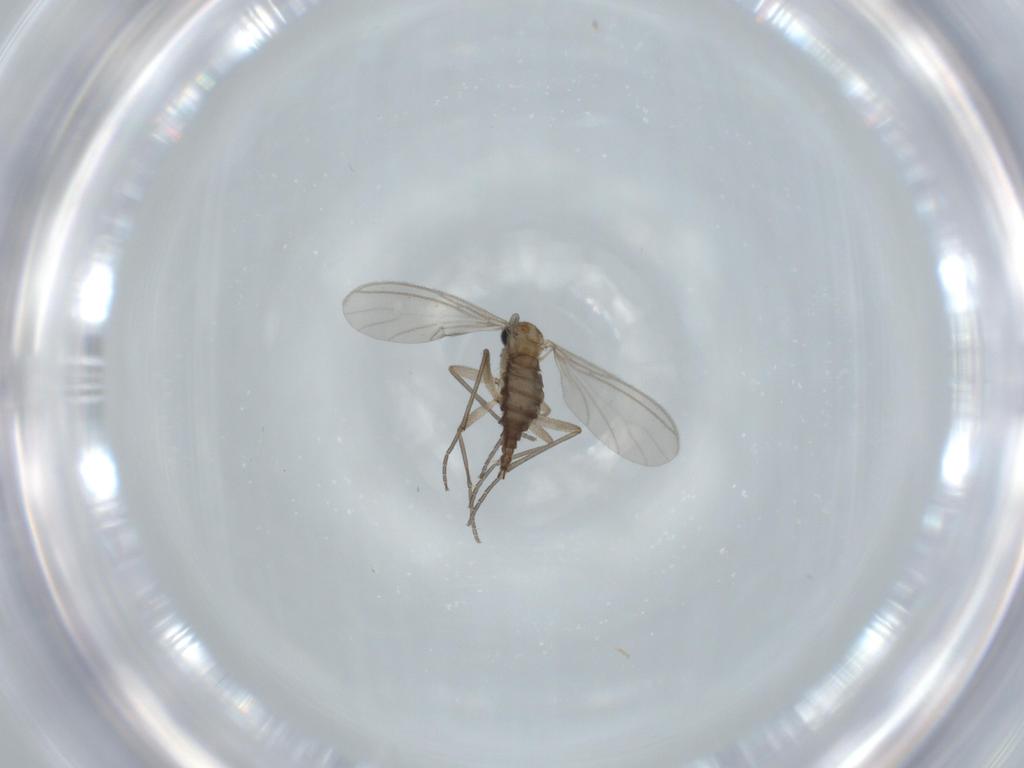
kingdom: Animalia
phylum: Arthropoda
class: Insecta
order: Diptera
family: Sciaridae
